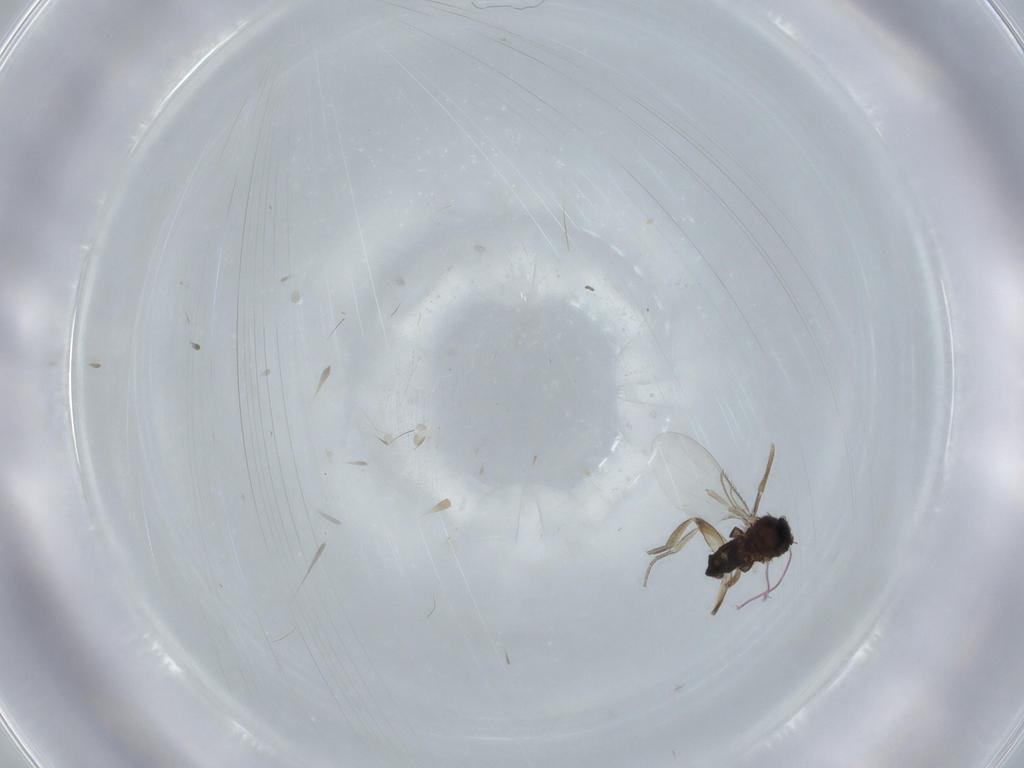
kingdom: Animalia
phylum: Arthropoda
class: Insecta
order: Diptera
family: Phoridae
